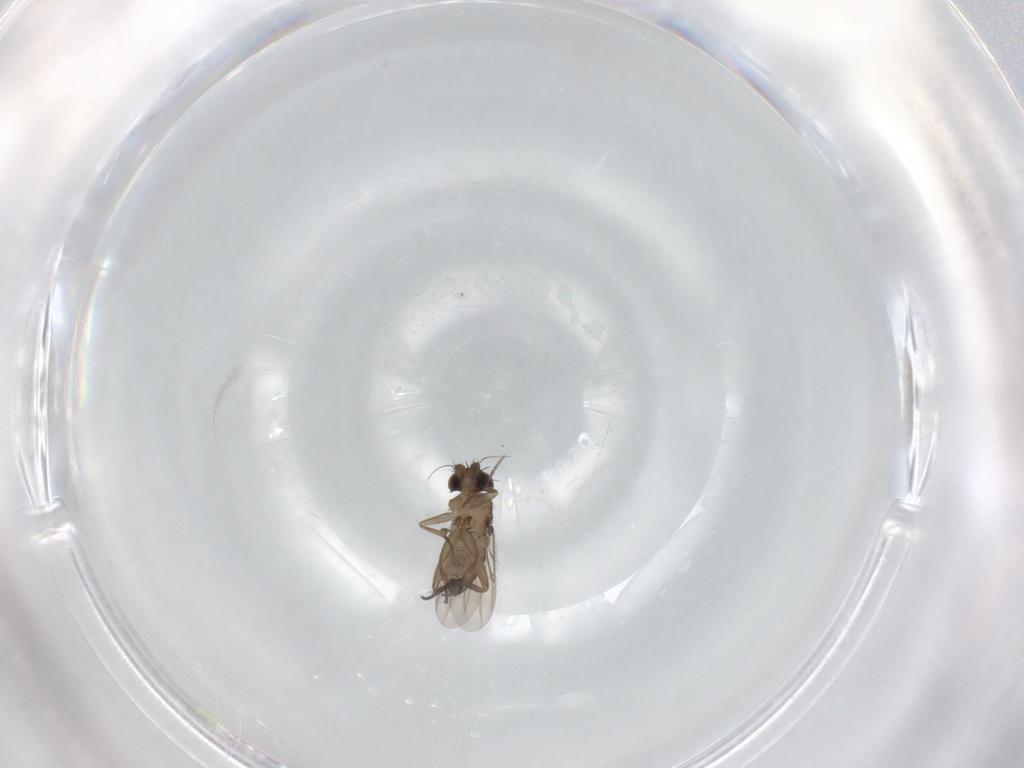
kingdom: Animalia
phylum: Arthropoda
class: Insecta
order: Diptera
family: Phoridae
